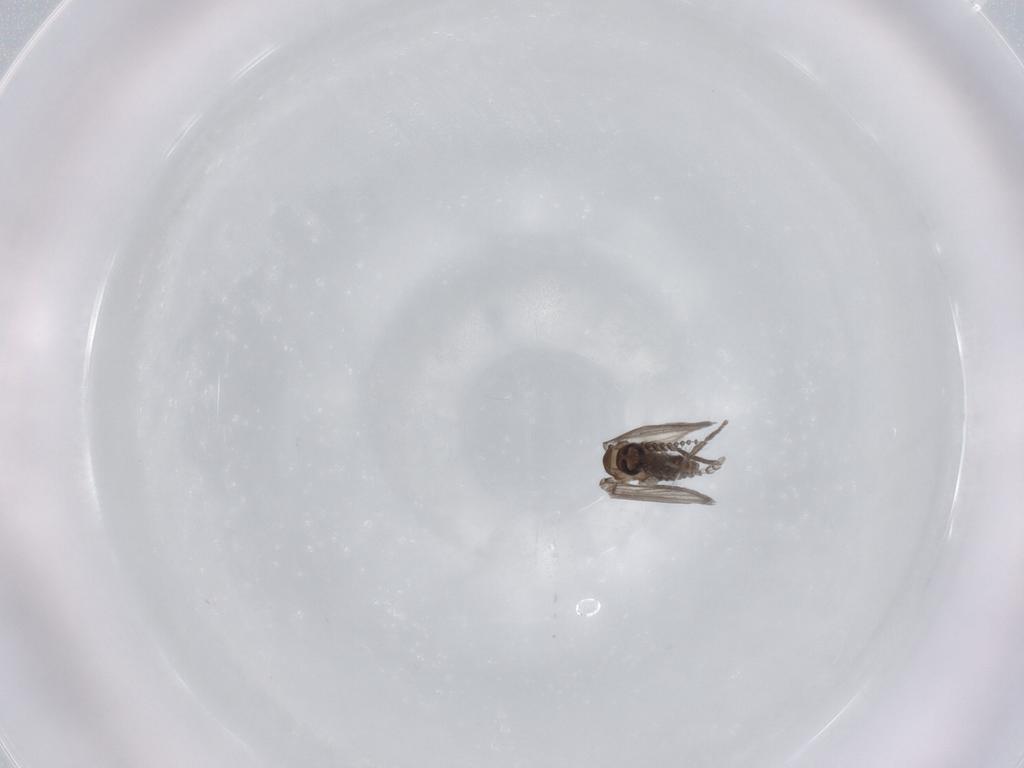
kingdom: Animalia
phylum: Arthropoda
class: Insecta
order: Diptera
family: Psychodidae
